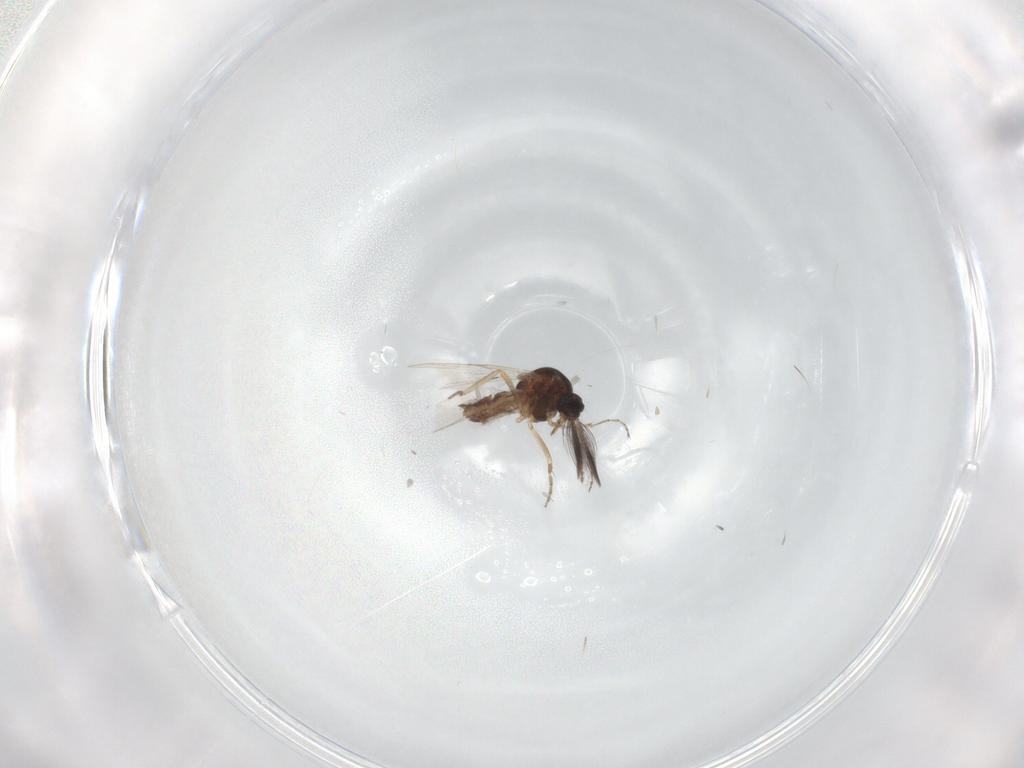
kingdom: Animalia
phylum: Arthropoda
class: Insecta
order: Diptera
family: Ceratopogonidae
